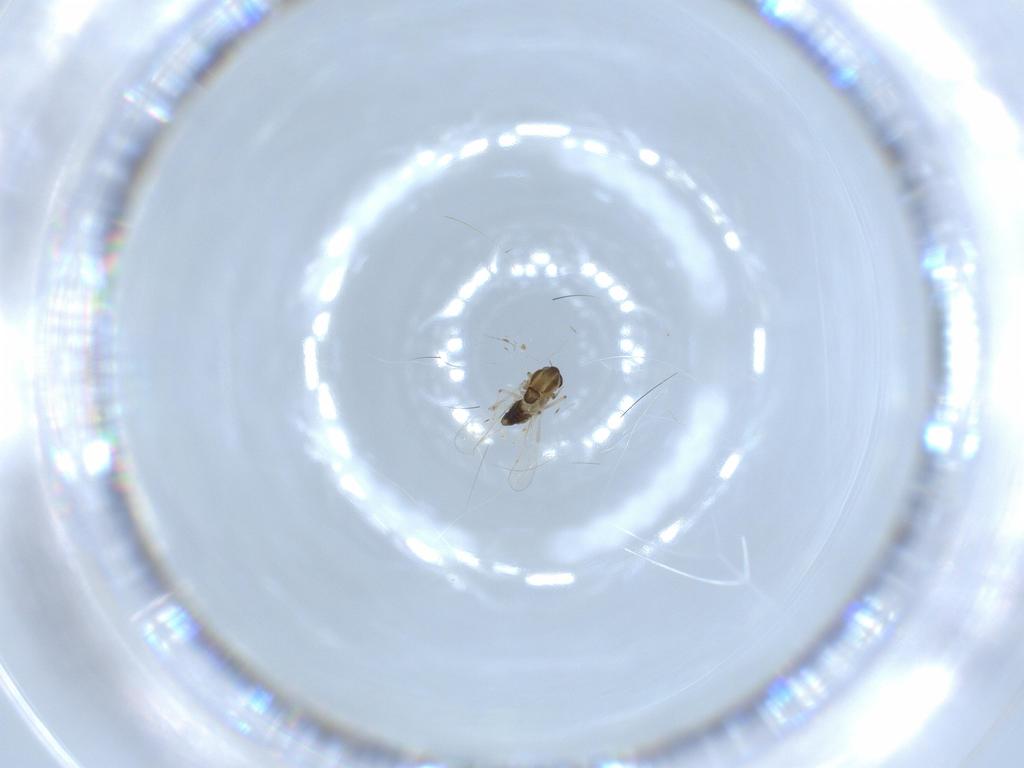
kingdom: Animalia
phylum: Arthropoda
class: Insecta
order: Diptera
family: Chironomidae
